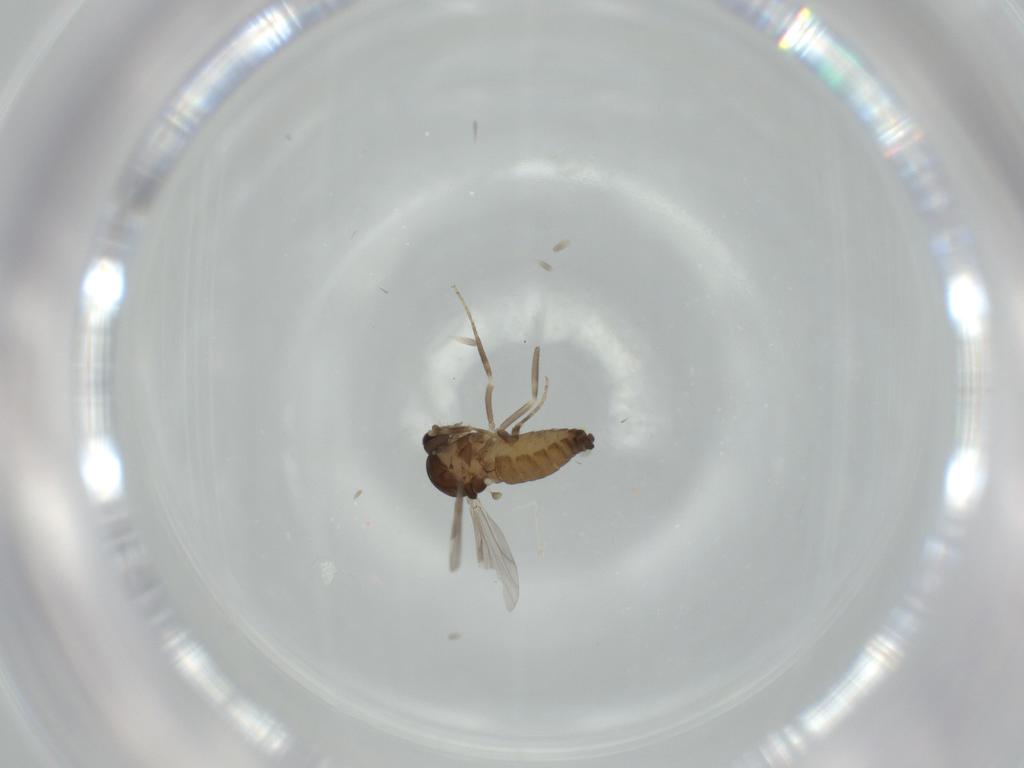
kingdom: Animalia
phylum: Arthropoda
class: Insecta
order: Diptera
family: Ceratopogonidae
